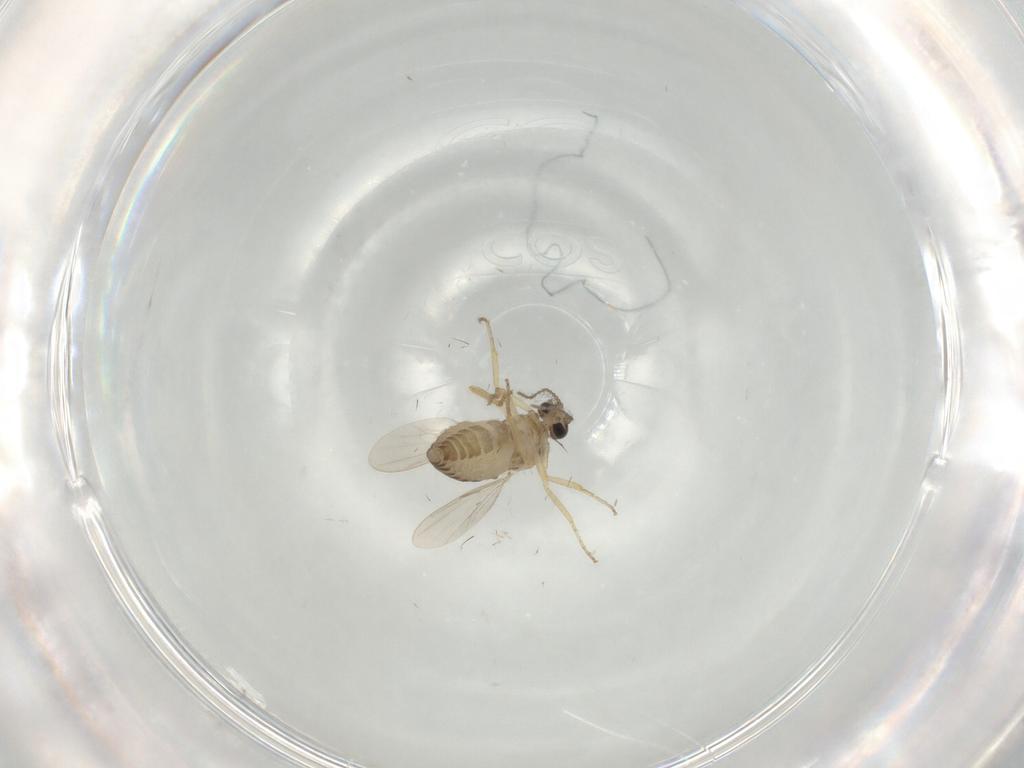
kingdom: Animalia
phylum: Arthropoda
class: Insecta
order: Diptera
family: Ceratopogonidae
